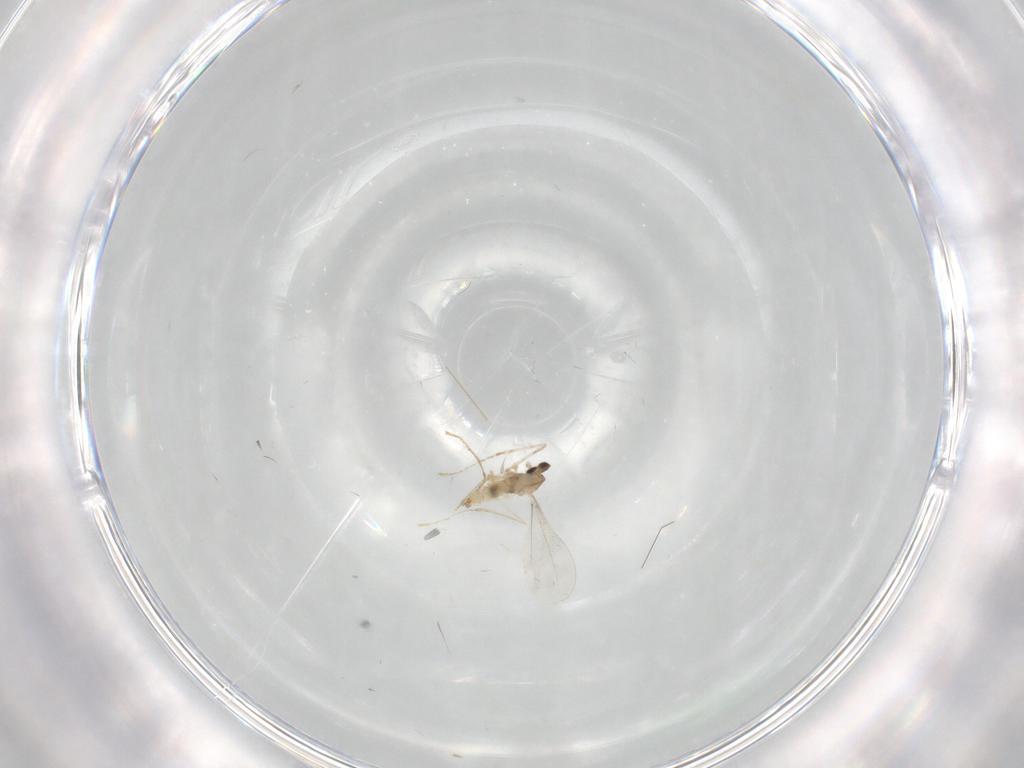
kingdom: Animalia
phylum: Arthropoda
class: Insecta
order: Diptera
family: Cecidomyiidae
